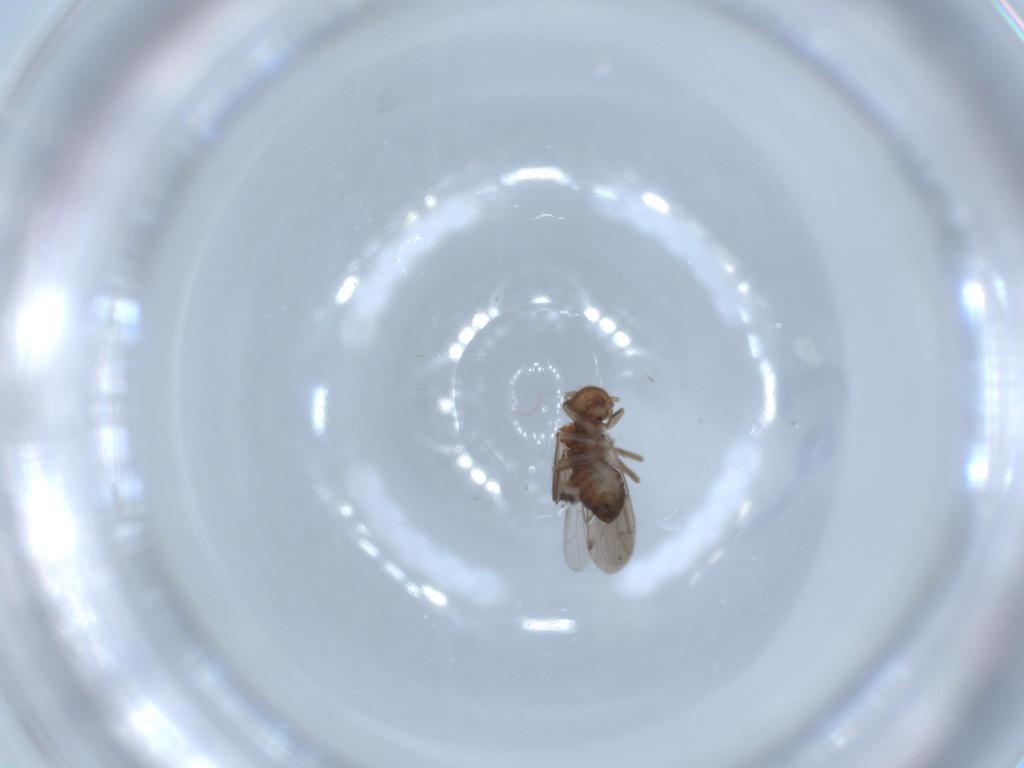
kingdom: Animalia
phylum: Arthropoda
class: Insecta
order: Psocodea
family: Ectopsocidae
